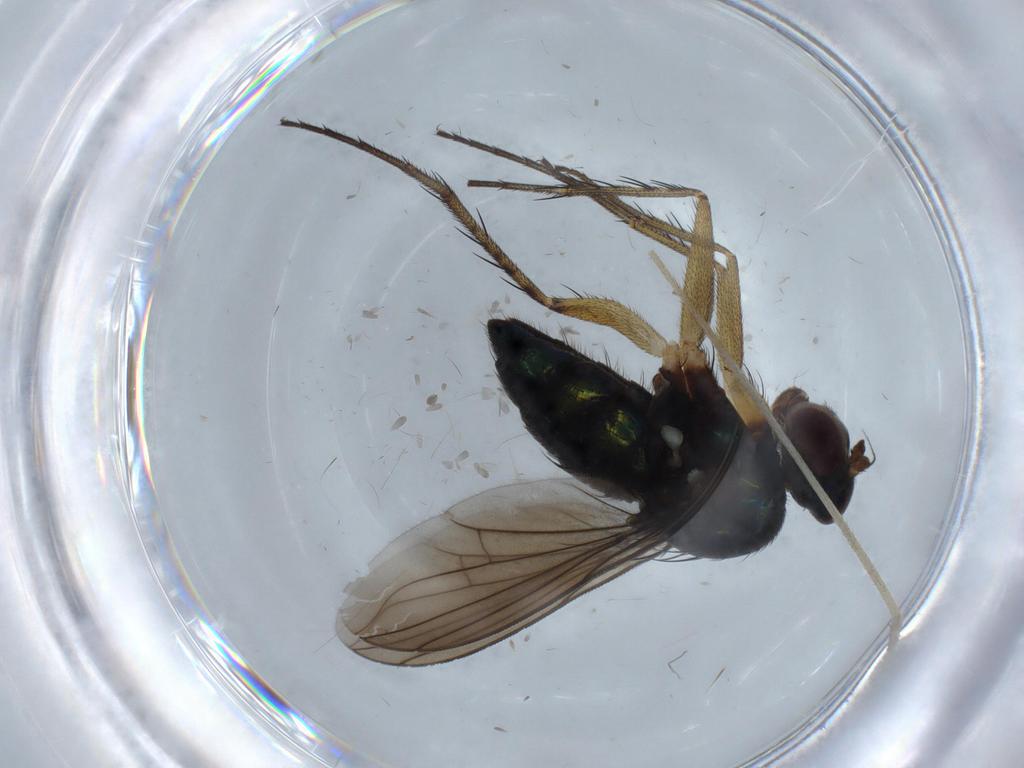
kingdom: Animalia
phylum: Arthropoda
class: Insecta
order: Diptera
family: Limoniidae
